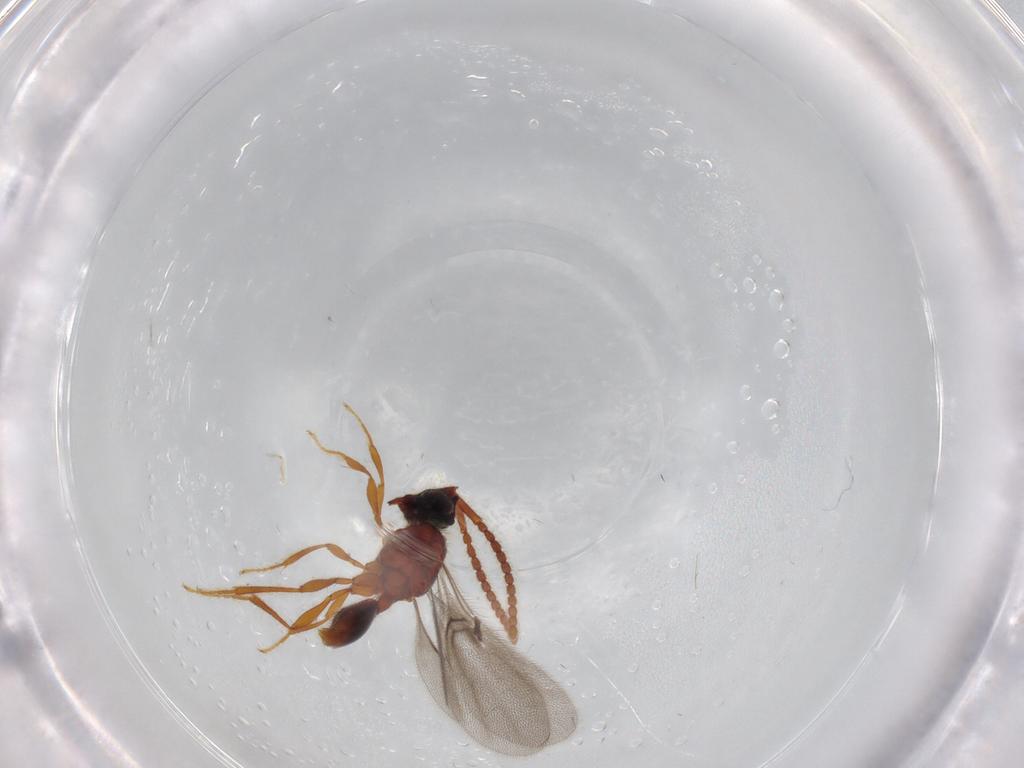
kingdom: Animalia
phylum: Arthropoda
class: Insecta
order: Hymenoptera
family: Diapriidae
